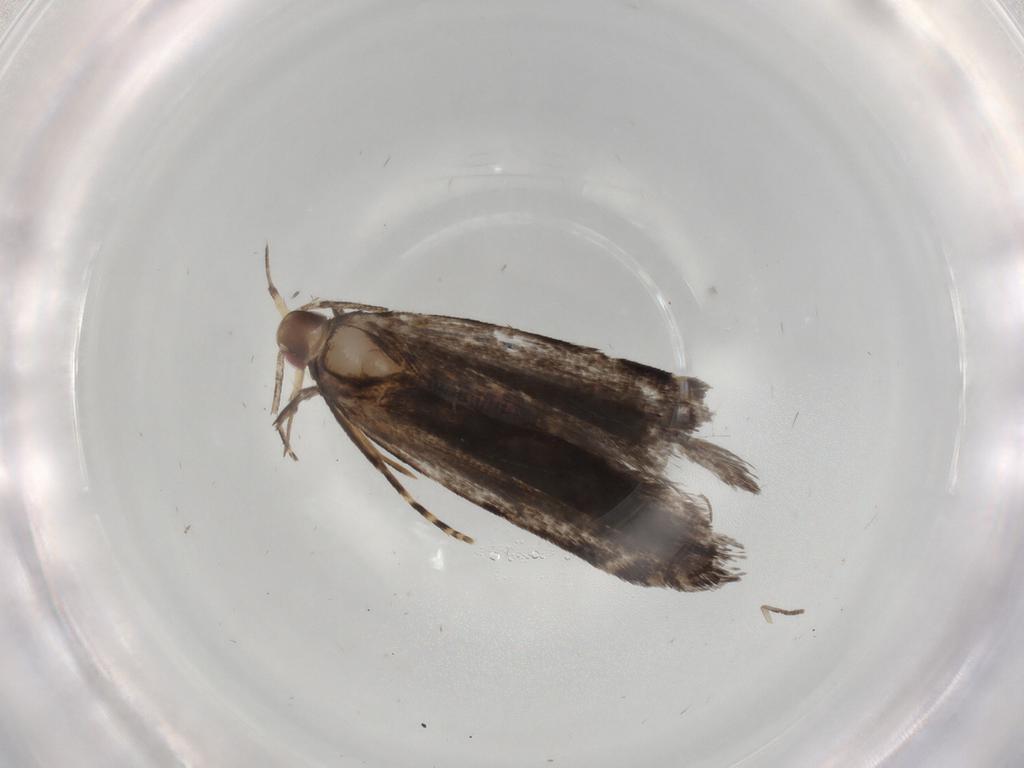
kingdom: Animalia
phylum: Arthropoda
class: Insecta
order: Lepidoptera
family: Gelechiidae
